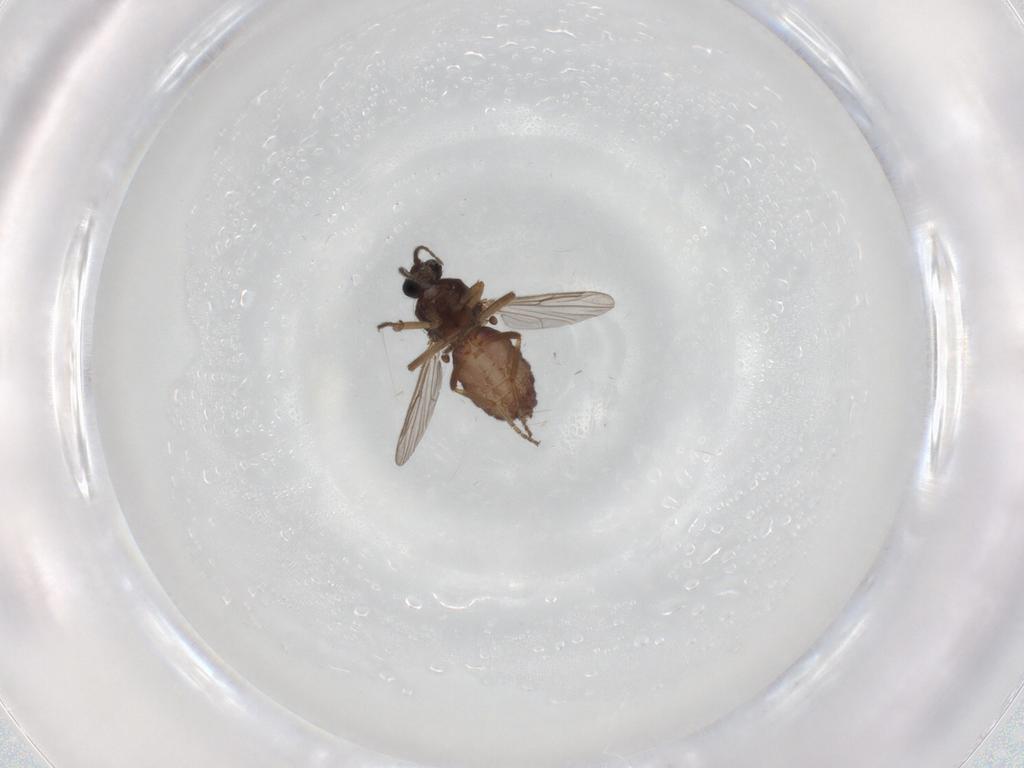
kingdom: Animalia
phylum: Arthropoda
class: Insecta
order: Diptera
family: Ceratopogonidae
